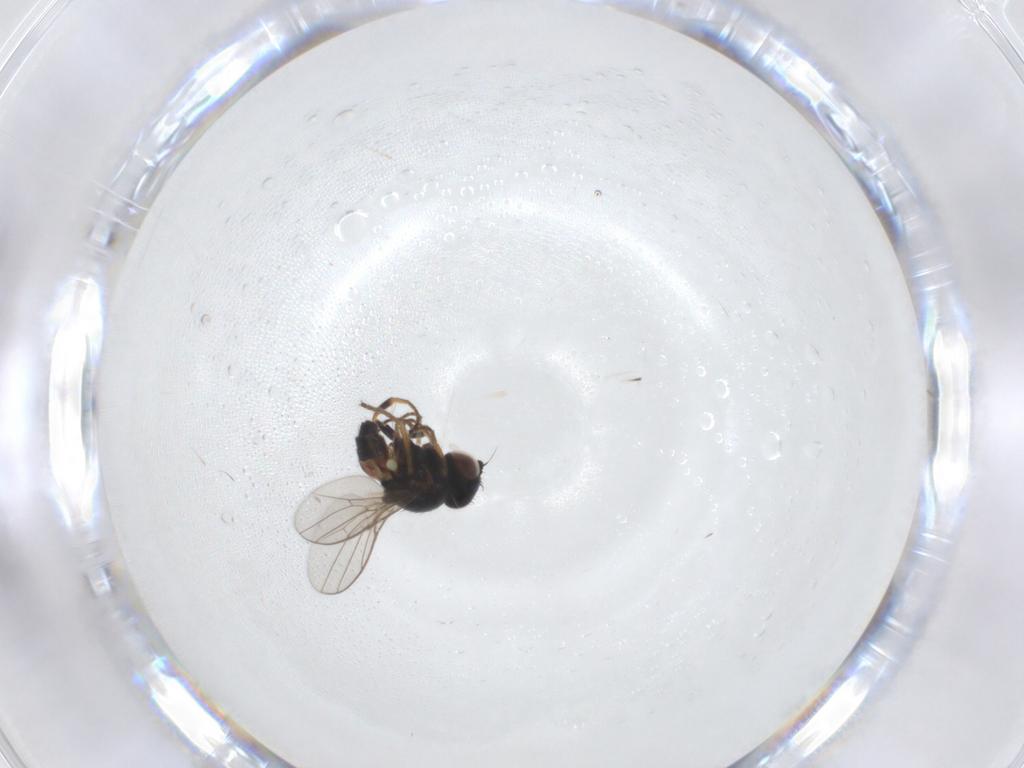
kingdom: Animalia
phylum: Arthropoda
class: Insecta
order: Diptera
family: Chloropidae
